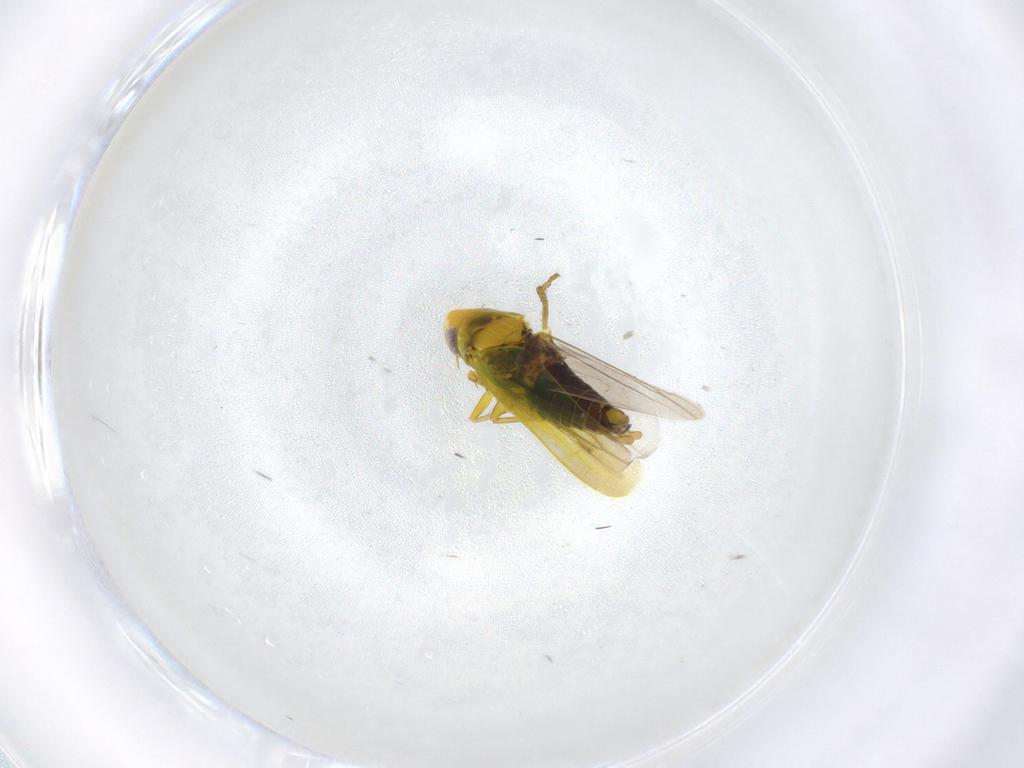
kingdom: Animalia
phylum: Arthropoda
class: Insecta
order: Hemiptera
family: Cicadellidae
